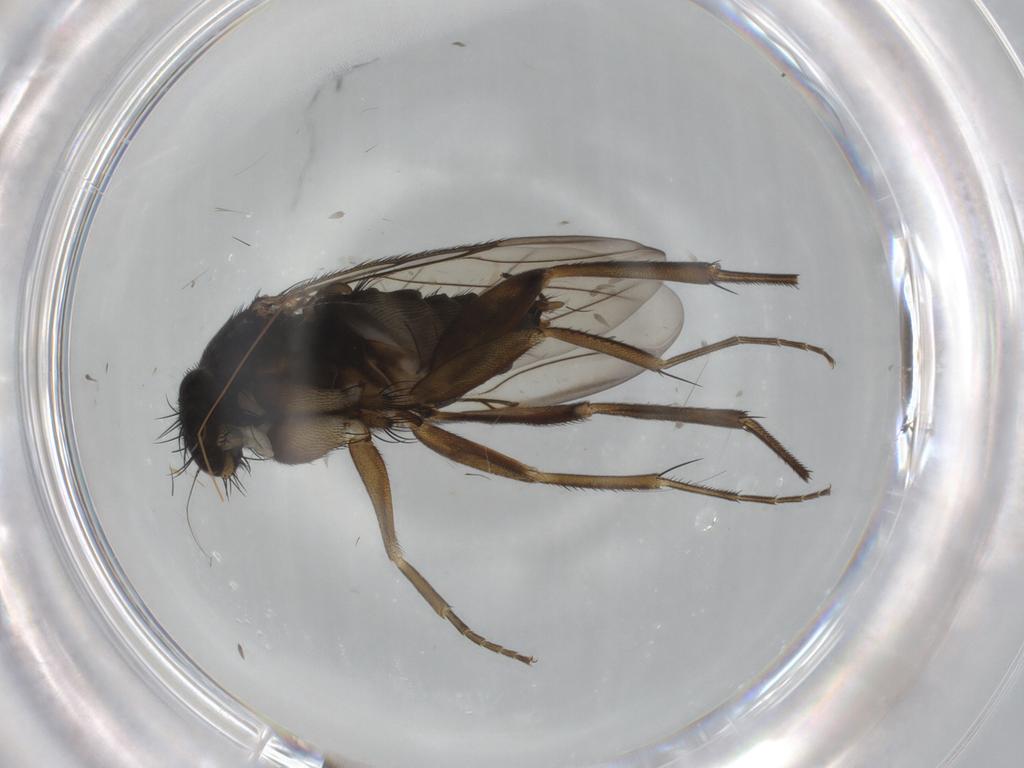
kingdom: Animalia
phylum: Arthropoda
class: Insecta
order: Diptera
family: Phoridae
